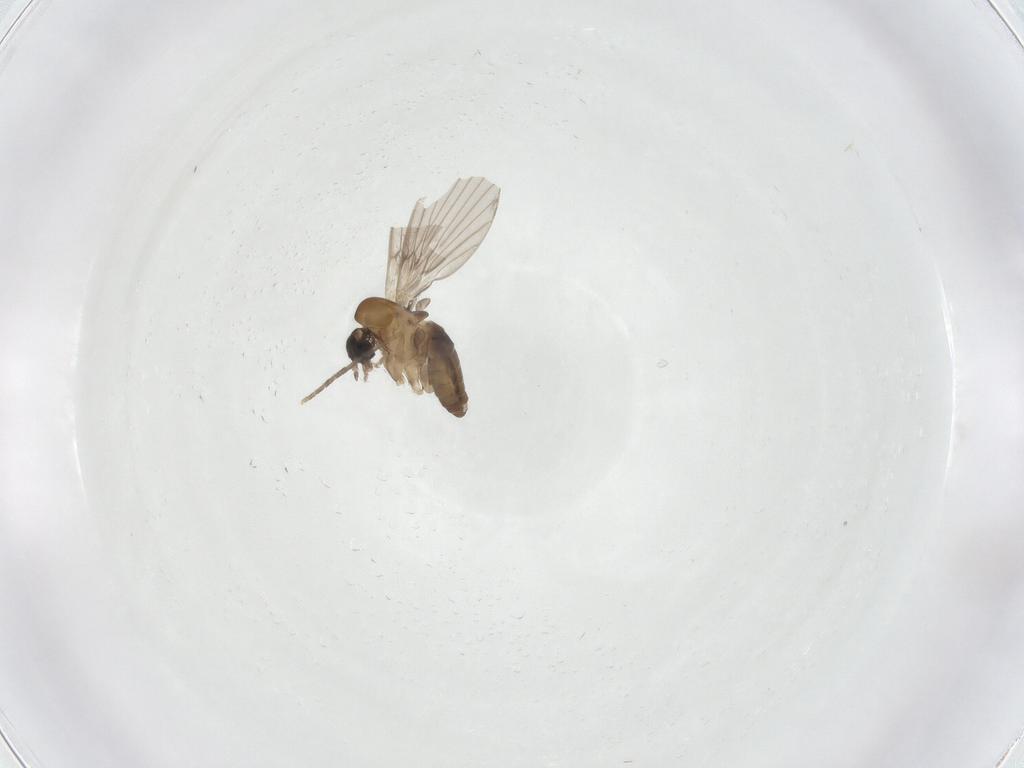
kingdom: Animalia
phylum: Arthropoda
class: Insecta
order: Diptera
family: Cecidomyiidae
